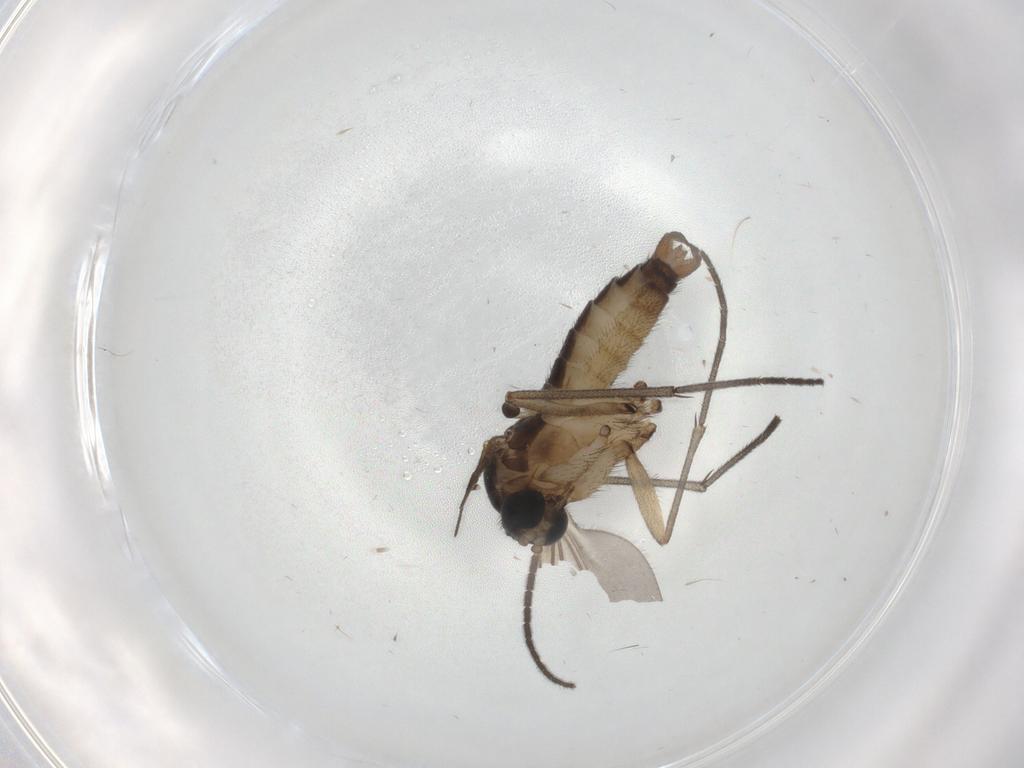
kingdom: Animalia
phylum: Arthropoda
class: Insecta
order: Diptera
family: Sciaridae
